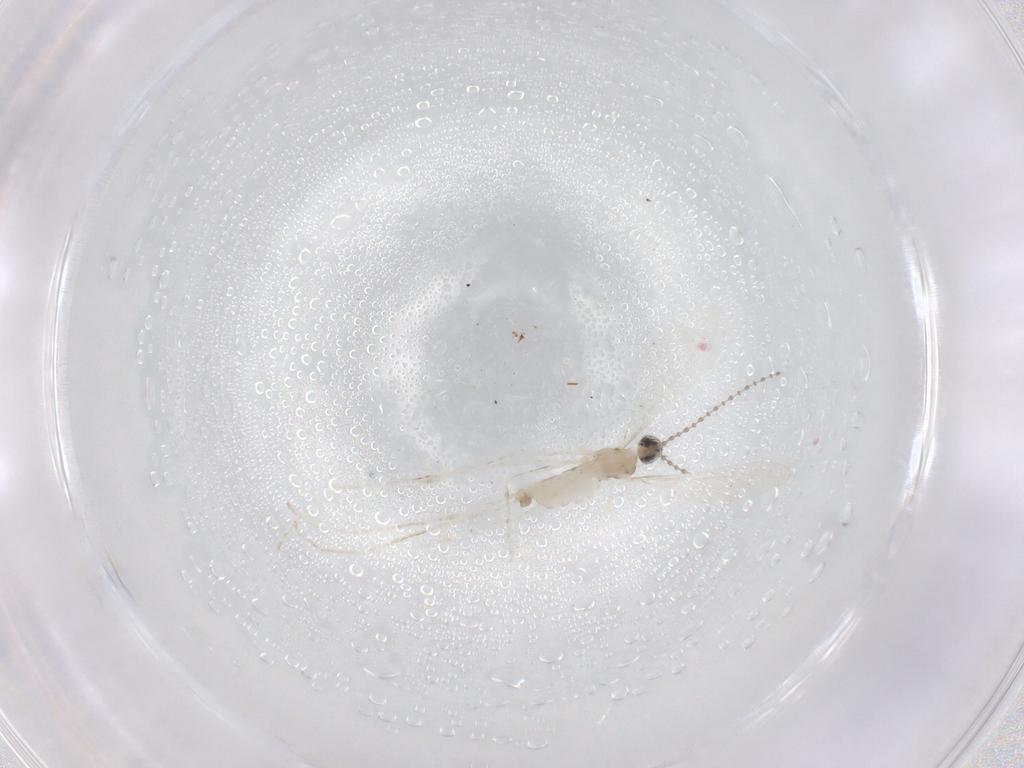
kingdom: Animalia
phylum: Arthropoda
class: Insecta
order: Diptera
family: Cecidomyiidae
